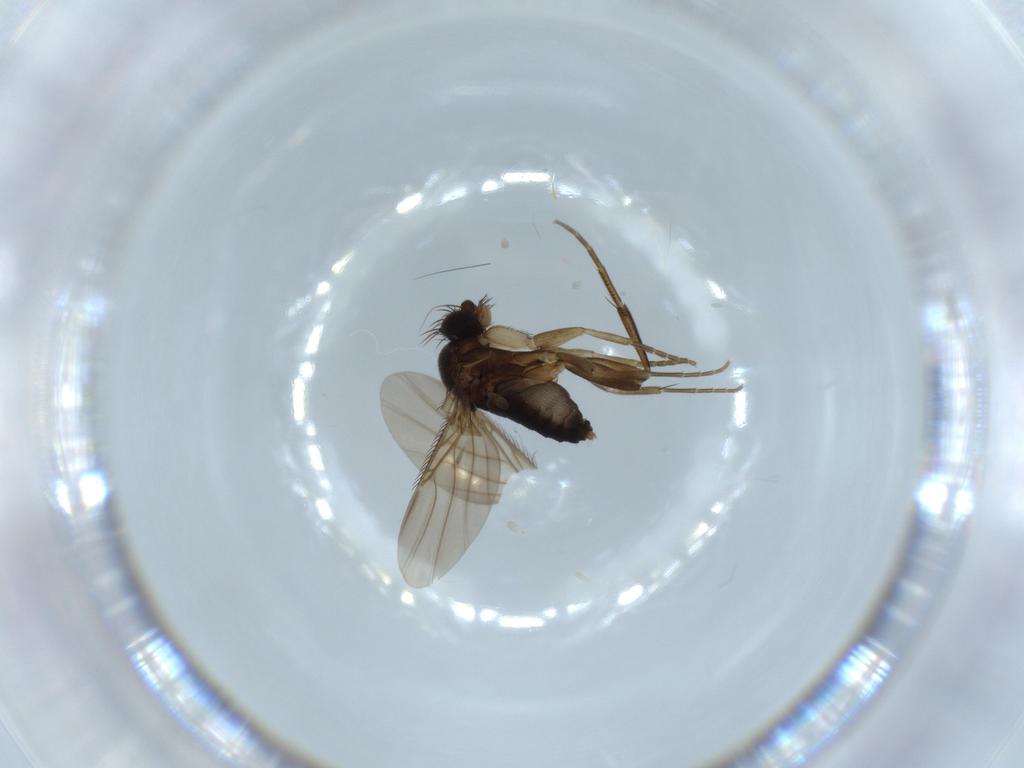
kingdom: Animalia
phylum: Arthropoda
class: Insecta
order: Diptera
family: Phoridae
